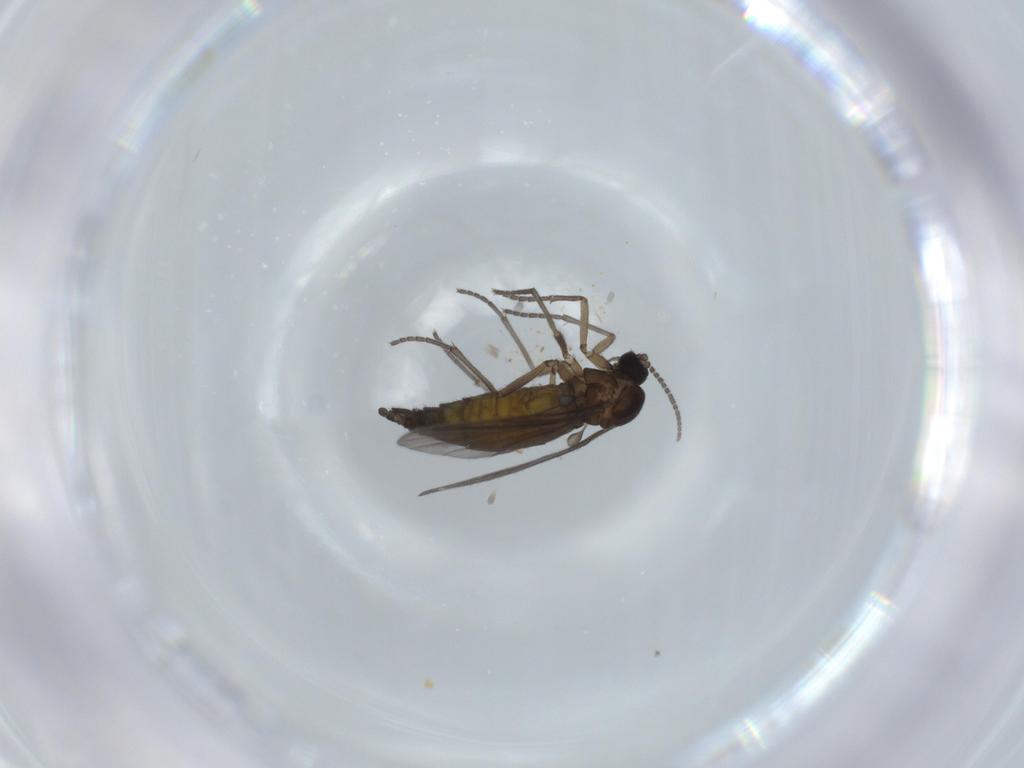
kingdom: Animalia
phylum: Arthropoda
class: Insecta
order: Diptera
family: Sciaridae
